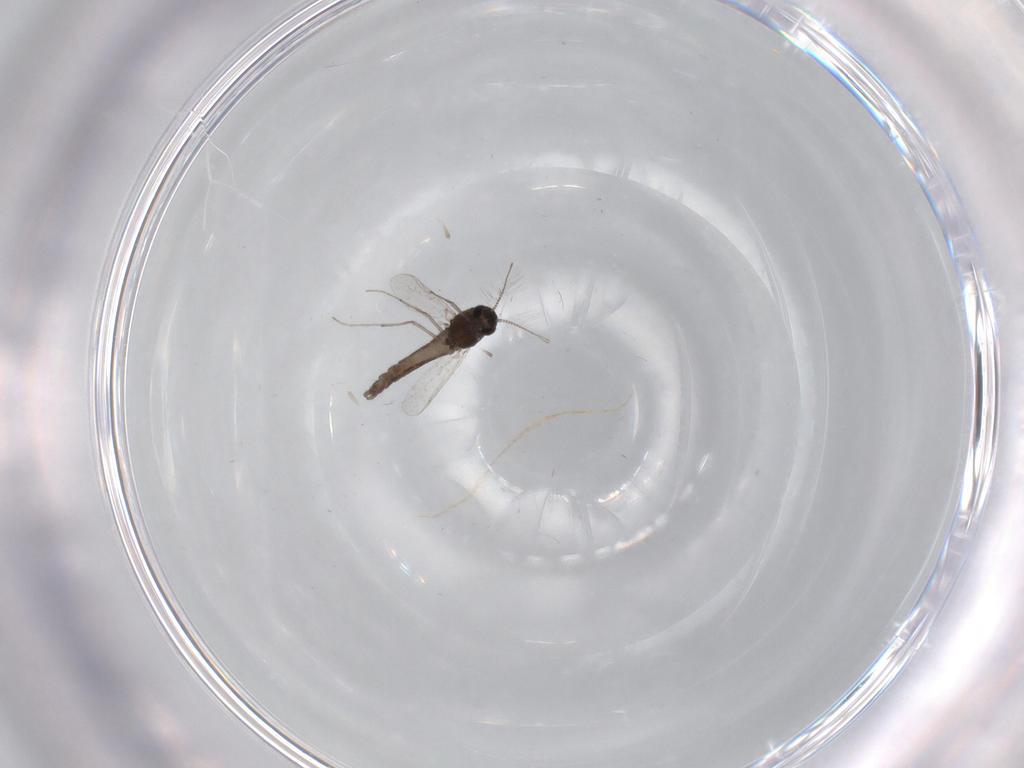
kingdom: Animalia
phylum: Arthropoda
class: Insecta
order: Diptera
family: Chironomidae
